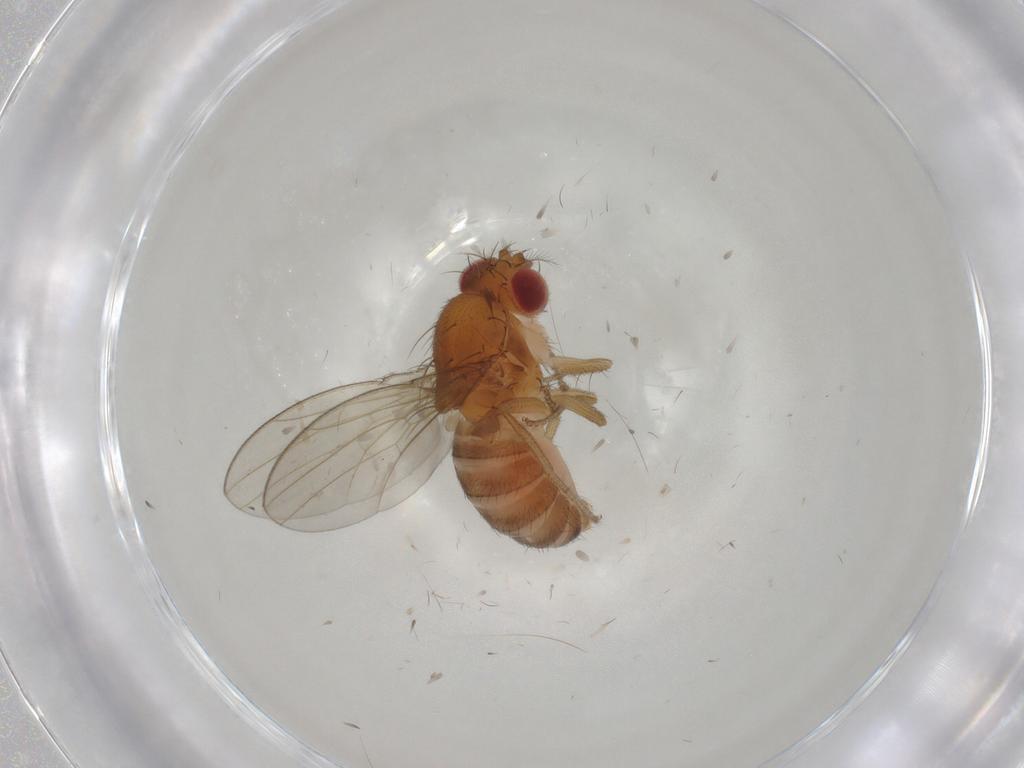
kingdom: Animalia
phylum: Arthropoda
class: Insecta
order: Diptera
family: Drosophilidae
